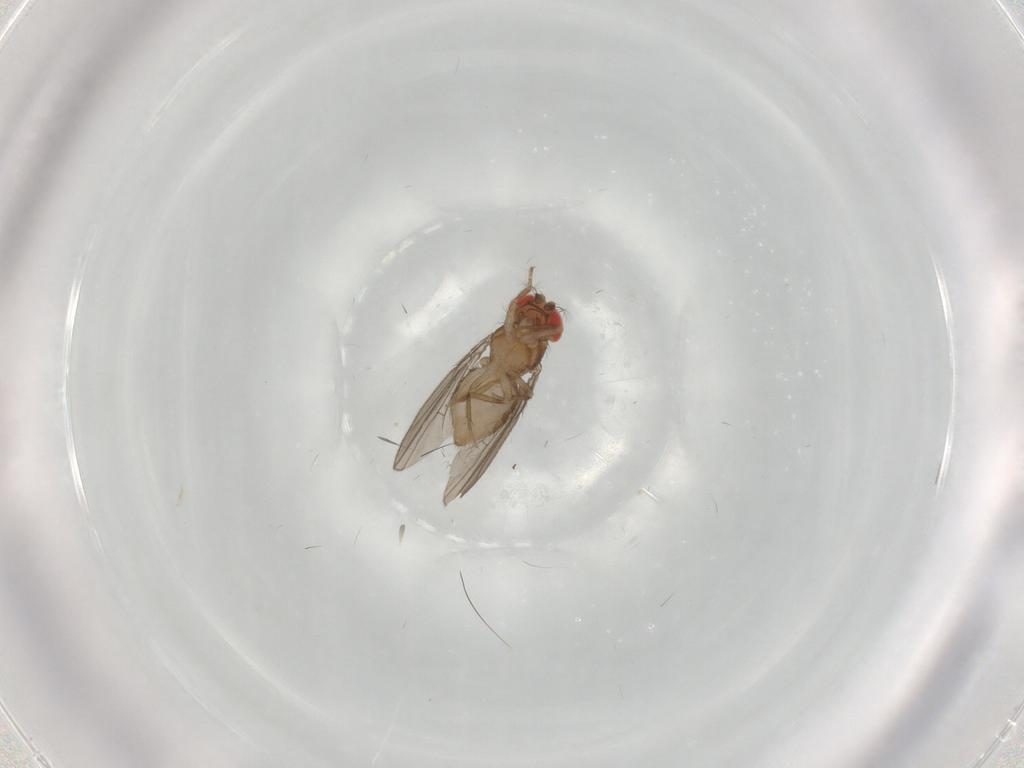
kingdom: Animalia
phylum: Arthropoda
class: Insecta
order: Diptera
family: Drosophilidae
